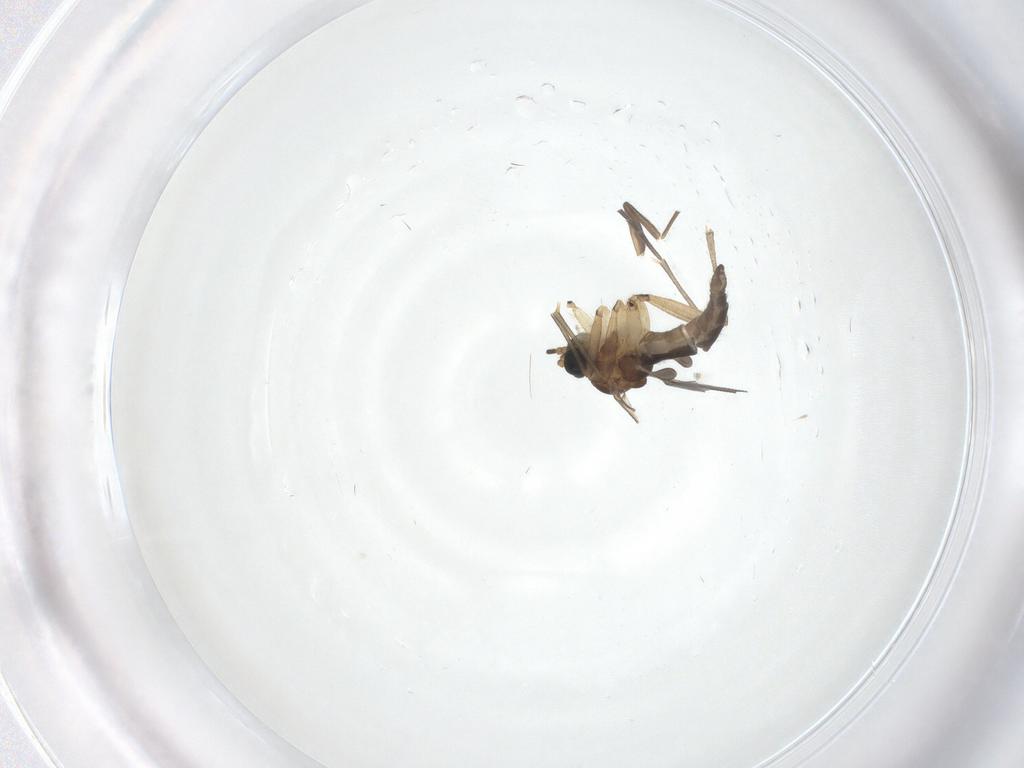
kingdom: Animalia
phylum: Arthropoda
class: Insecta
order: Diptera
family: Sciaridae
